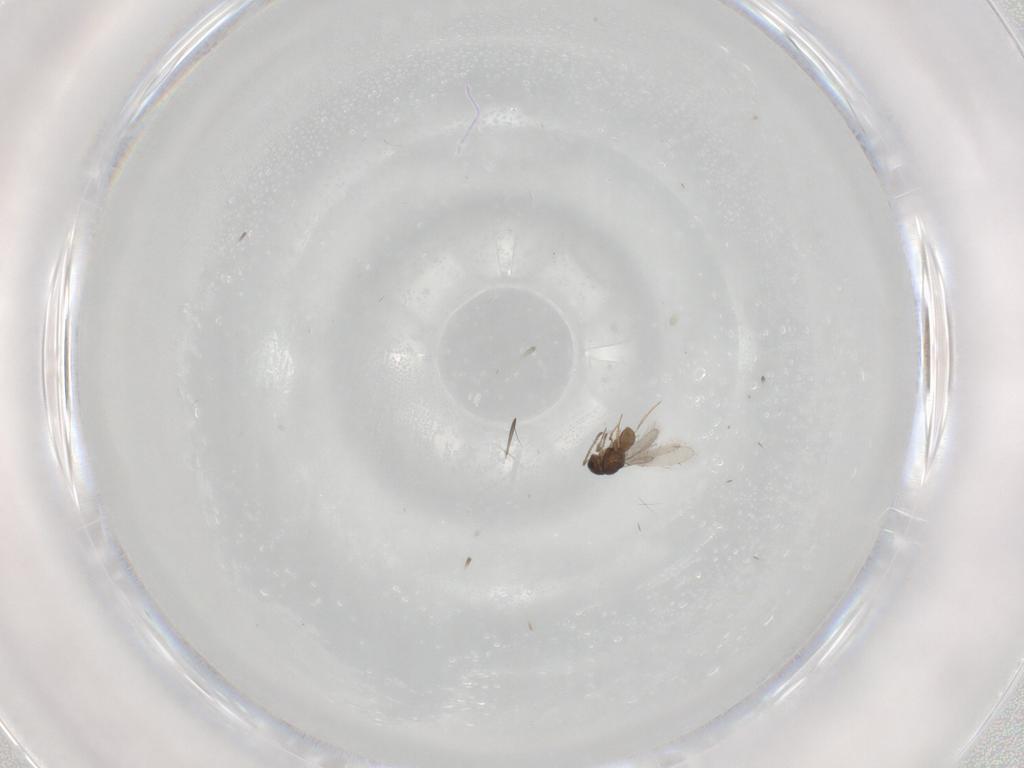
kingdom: Animalia
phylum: Arthropoda
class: Insecta
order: Hymenoptera
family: Scelionidae
